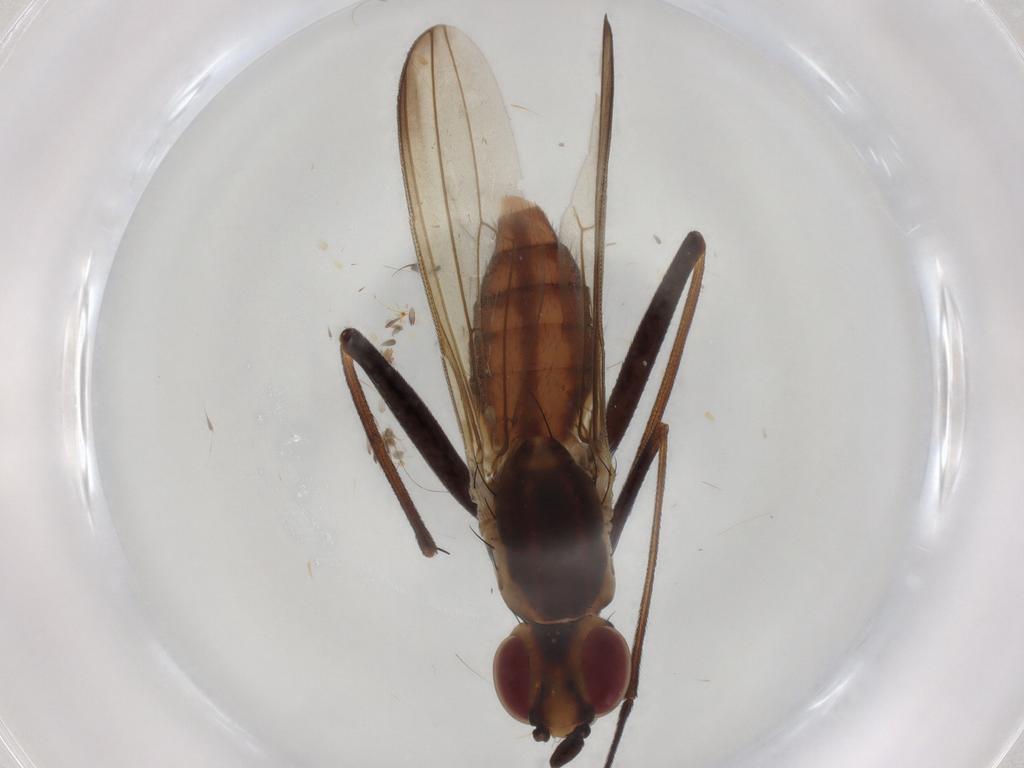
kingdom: Animalia
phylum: Arthropoda
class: Insecta
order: Diptera
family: Neriidae
